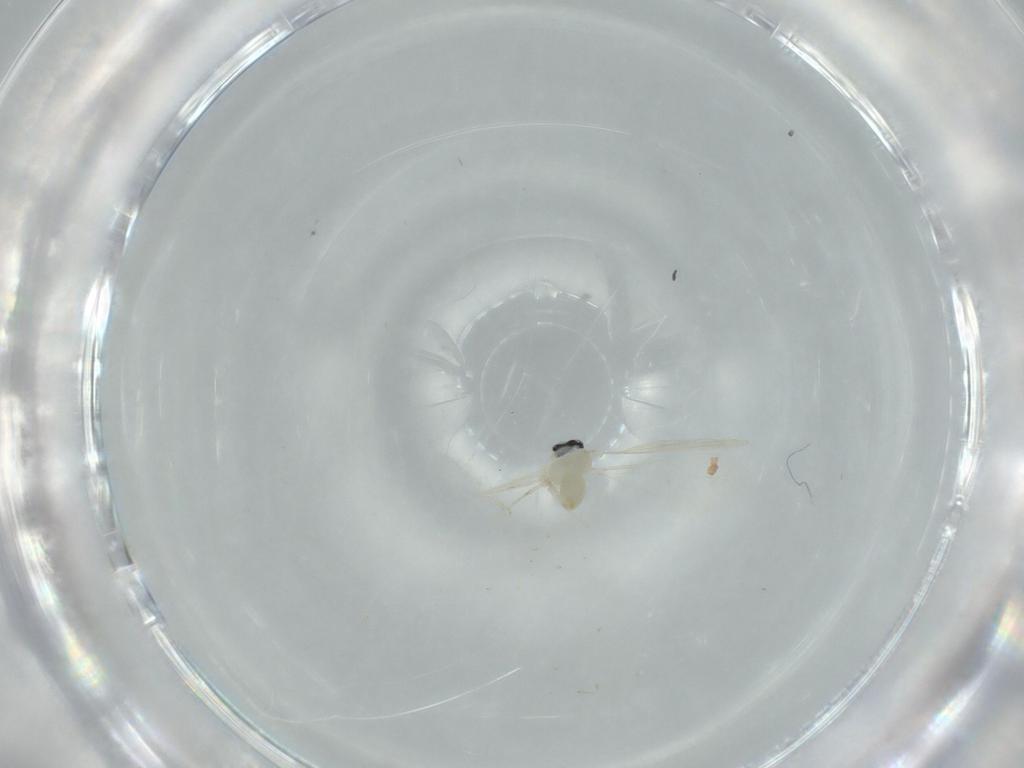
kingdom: Animalia
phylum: Arthropoda
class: Insecta
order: Diptera
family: Cecidomyiidae
